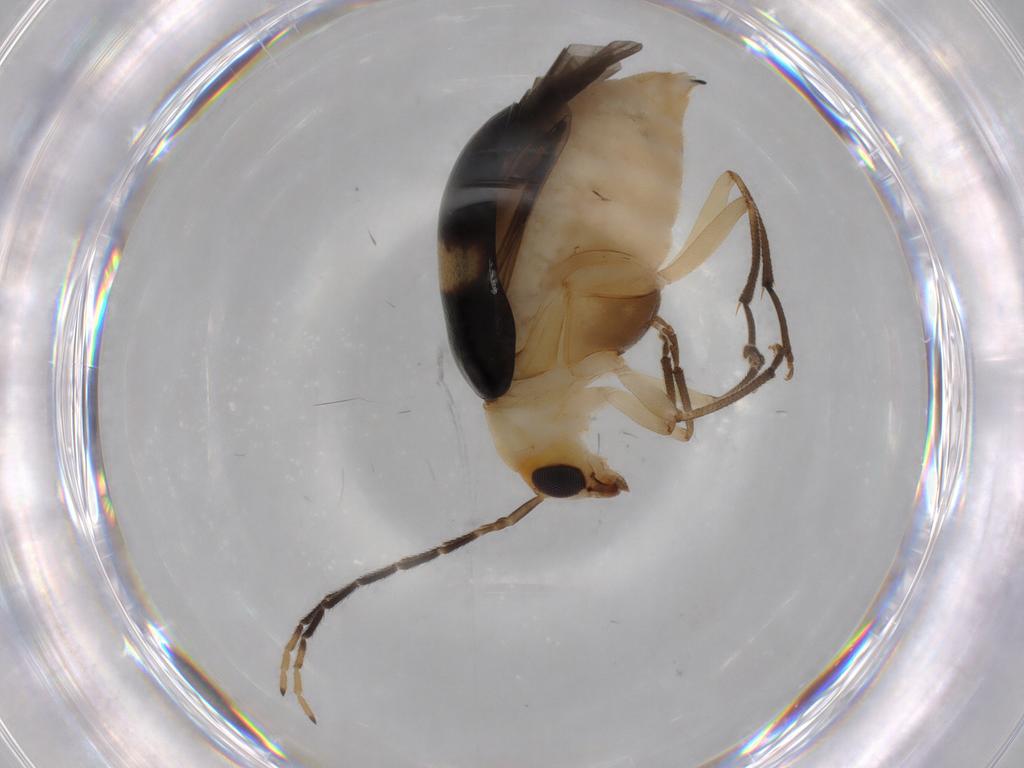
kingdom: Animalia
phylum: Arthropoda
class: Insecta
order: Coleoptera
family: Chrysomelidae
